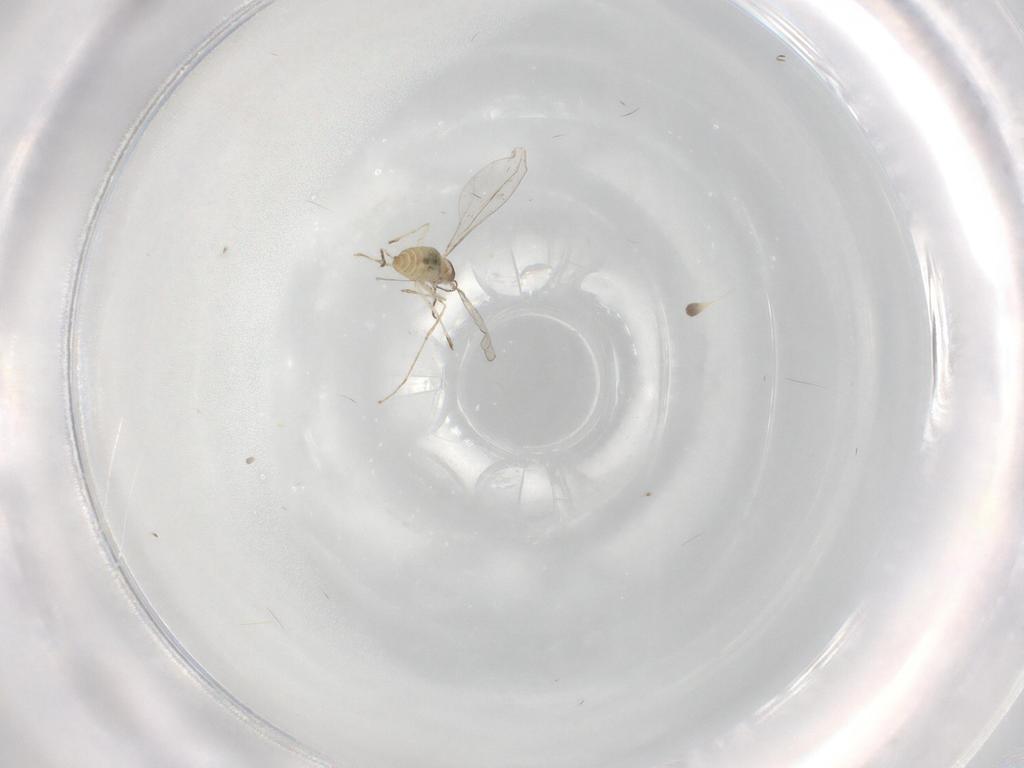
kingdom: Animalia
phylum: Arthropoda
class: Insecta
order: Diptera
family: Cecidomyiidae
